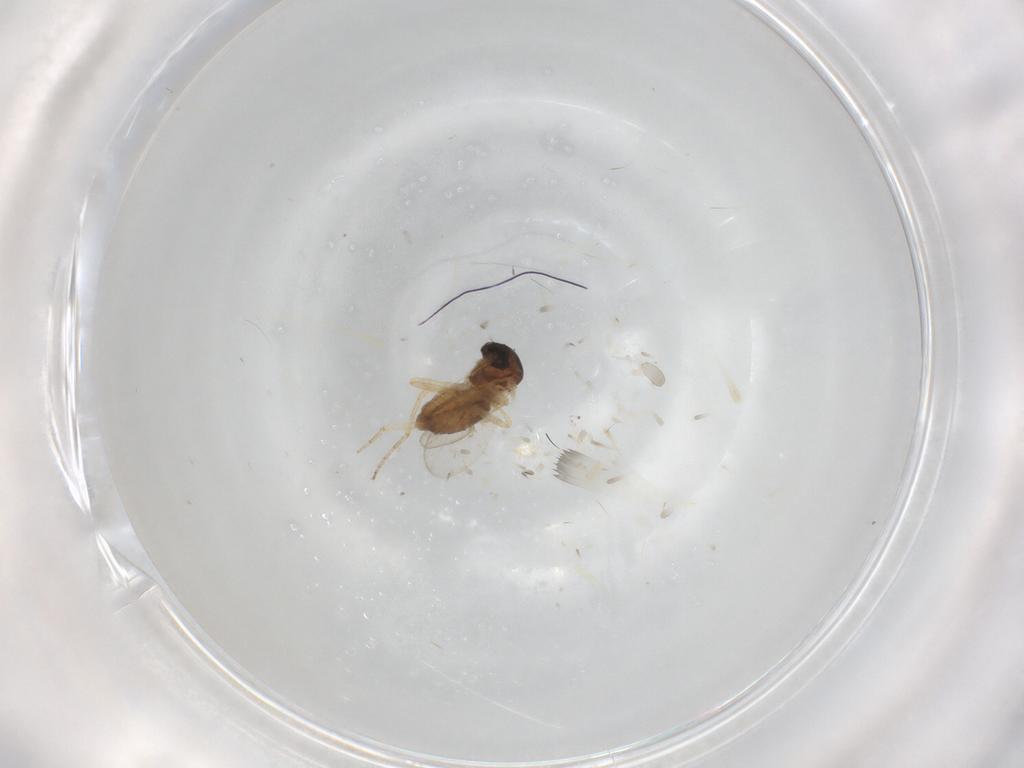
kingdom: Animalia
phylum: Arthropoda
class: Insecta
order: Diptera
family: Ceratopogonidae
